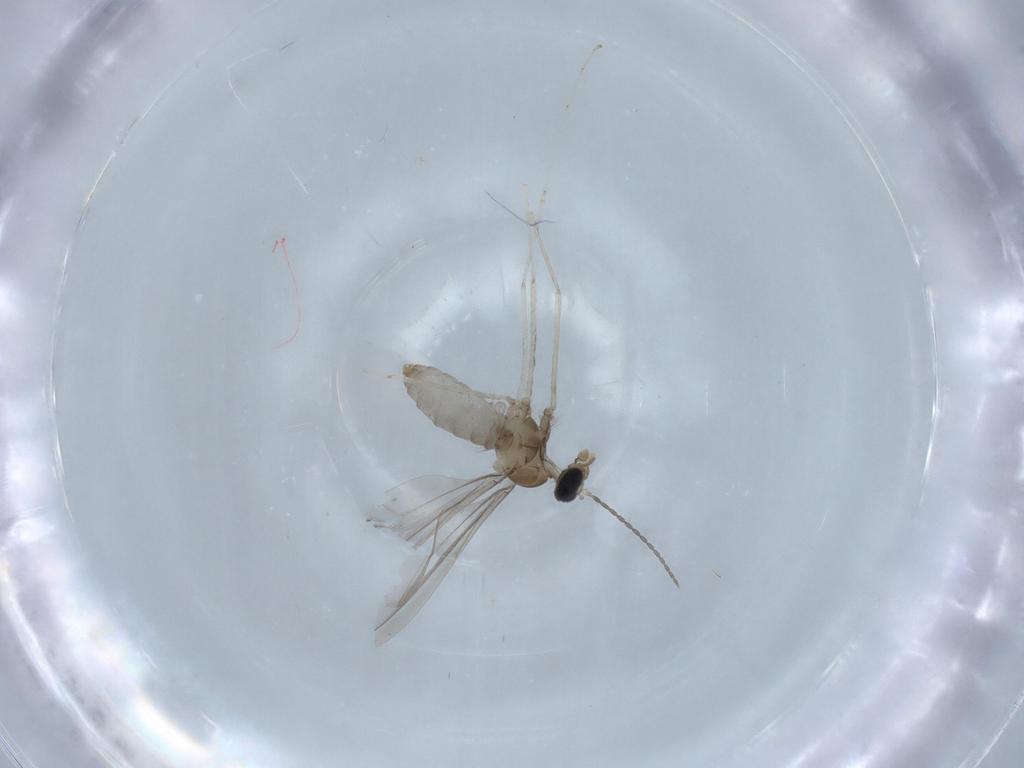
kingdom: Animalia
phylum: Arthropoda
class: Insecta
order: Diptera
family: Psychodidae
